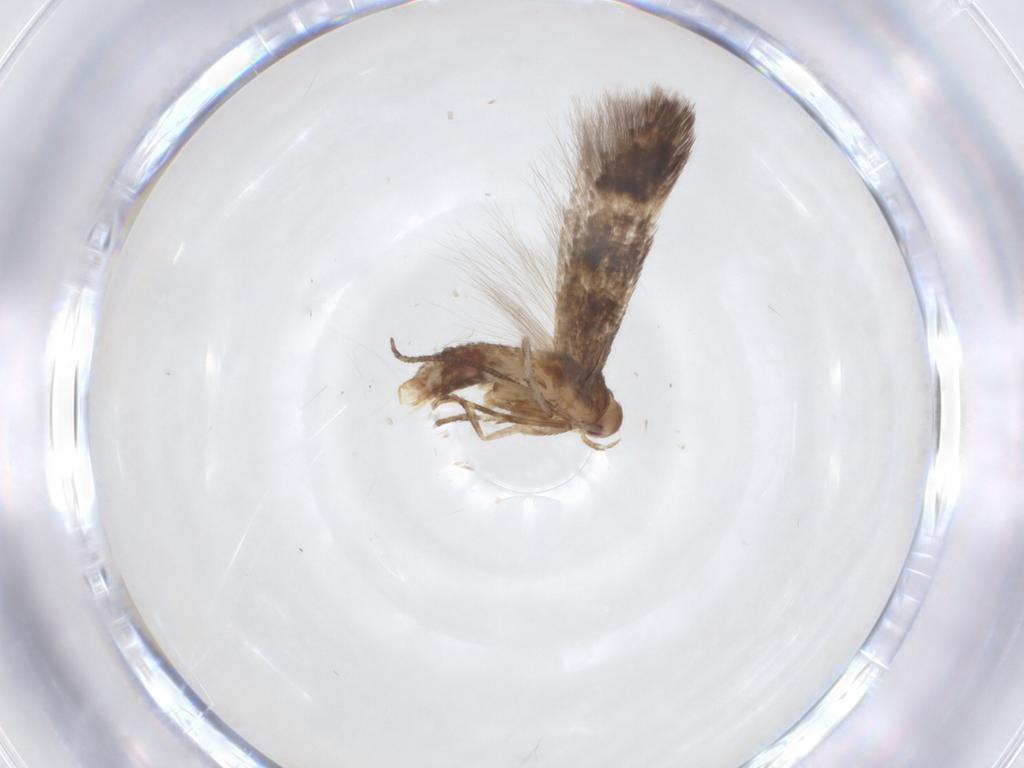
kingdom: Animalia
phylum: Arthropoda
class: Insecta
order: Lepidoptera
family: Momphidae
